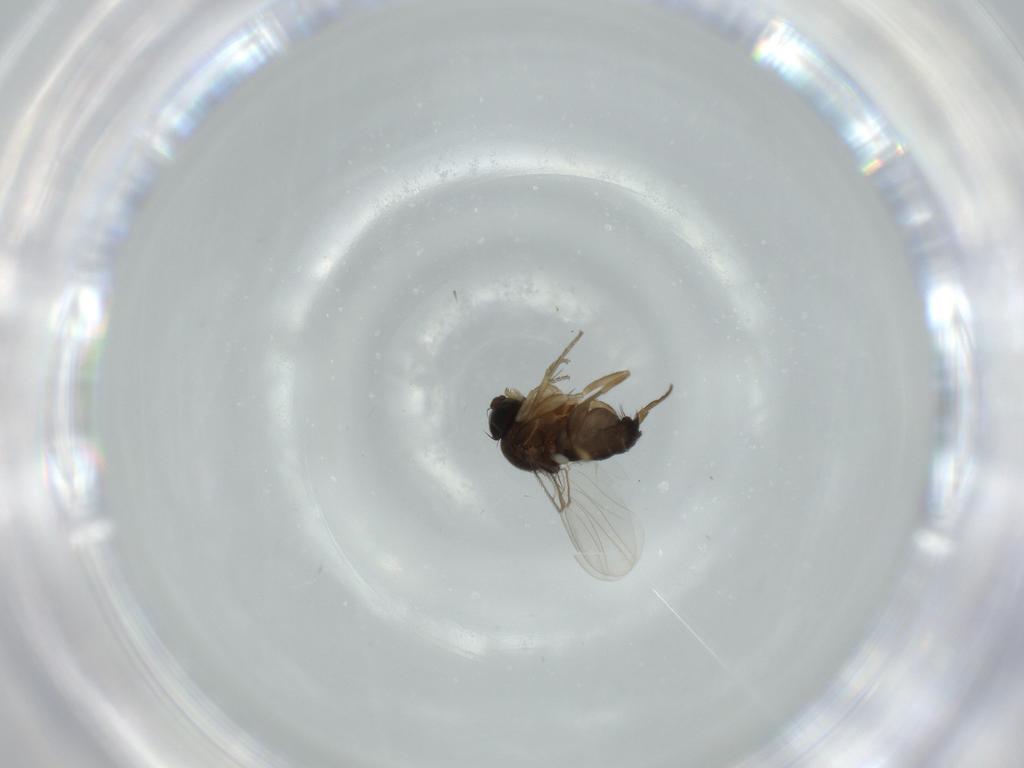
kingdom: Animalia
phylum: Arthropoda
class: Insecta
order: Diptera
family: Phoridae
